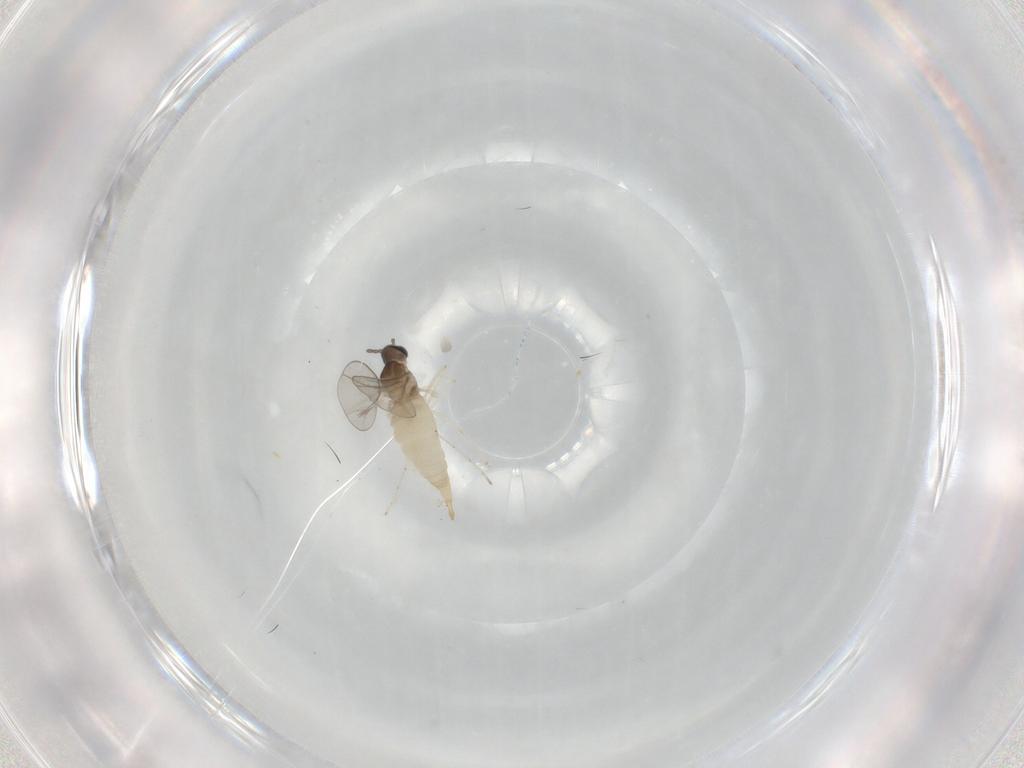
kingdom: Animalia
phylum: Arthropoda
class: Insecta
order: Diptera
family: Cecidomyiidae
